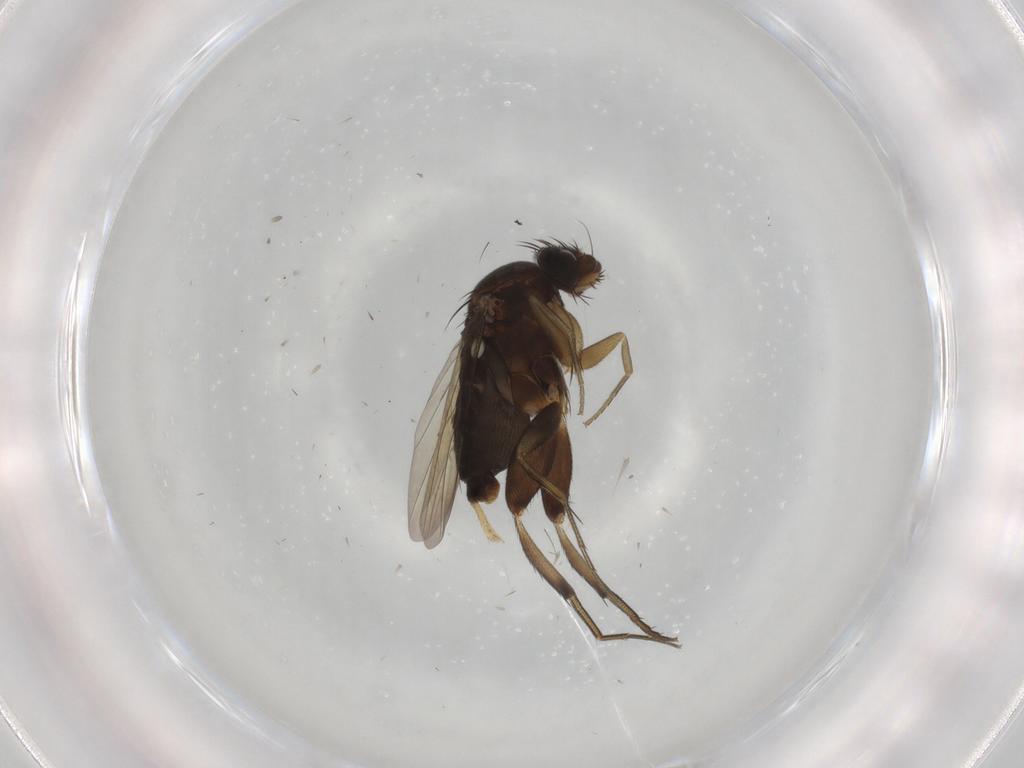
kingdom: Animalia
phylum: Arthropoda
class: Insecta
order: Diptera
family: Phoridae
